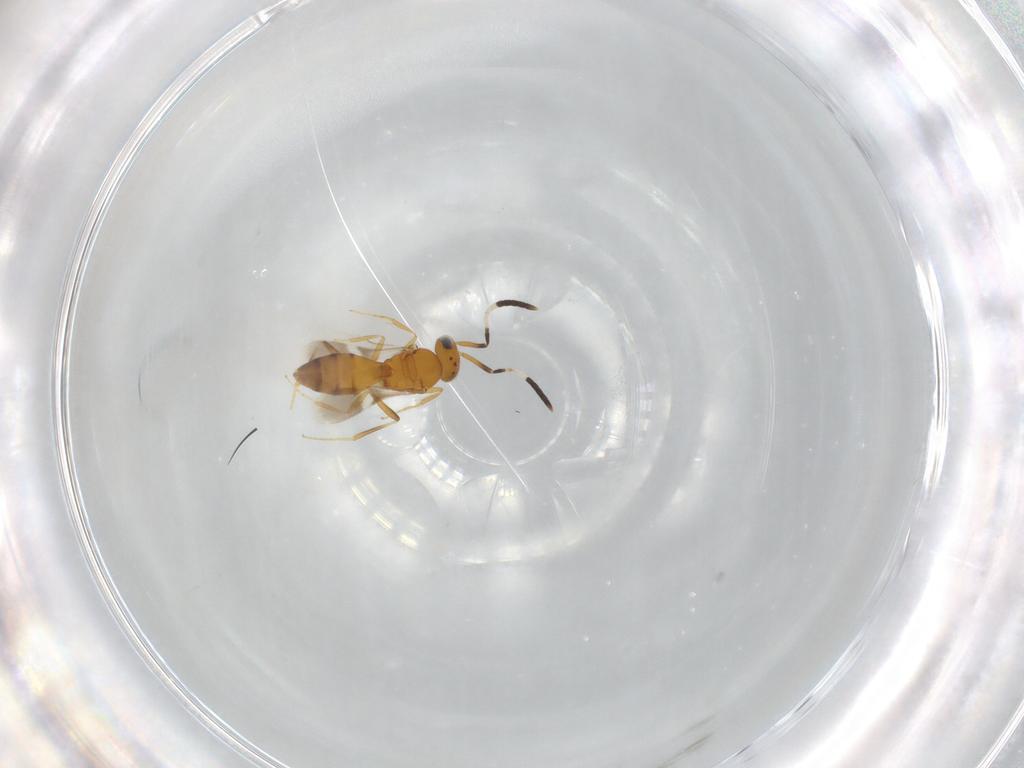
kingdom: Animalia
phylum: Arthropoda
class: Insecta
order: Hymenoptera
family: Scelionidae
